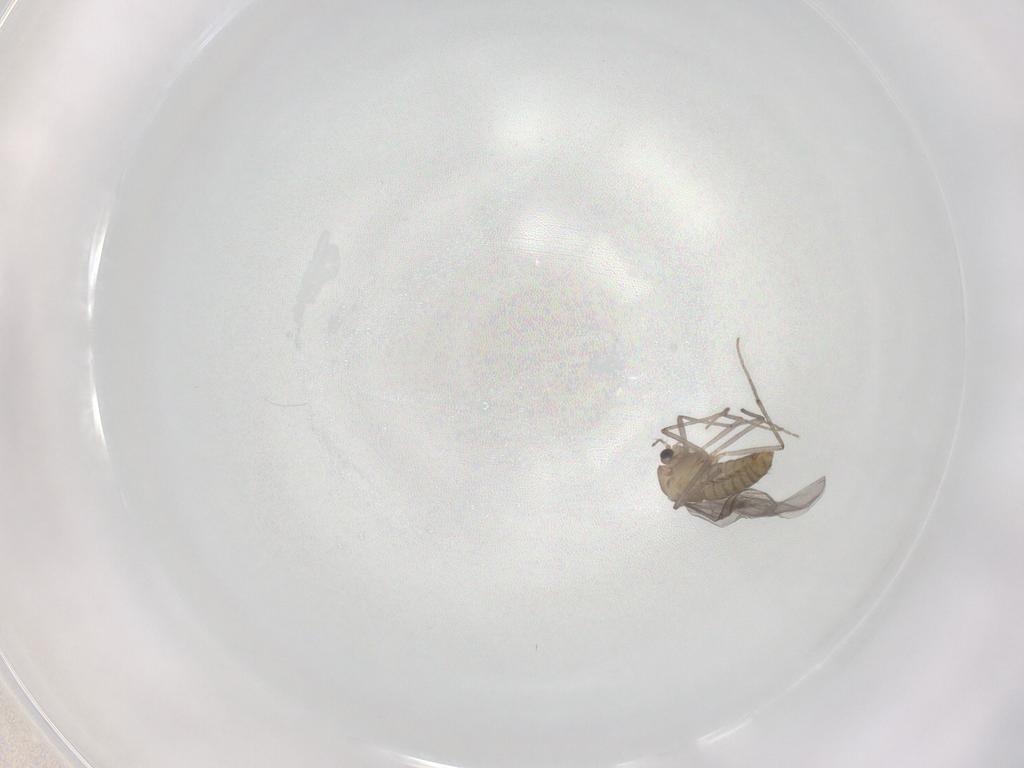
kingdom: Animalia
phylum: Arthropoda
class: Insecta
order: Diptera
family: Chironomidae
